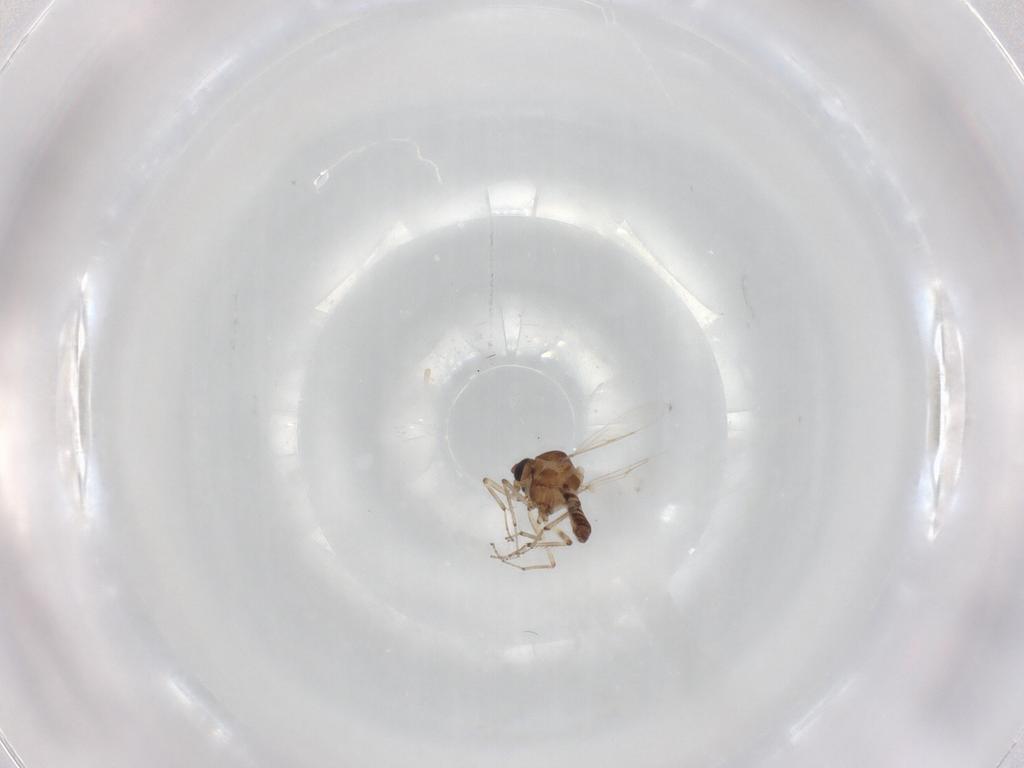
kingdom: Animalia
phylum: Arthropoda
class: Insecta
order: Diptera
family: Ceratopogonidae
